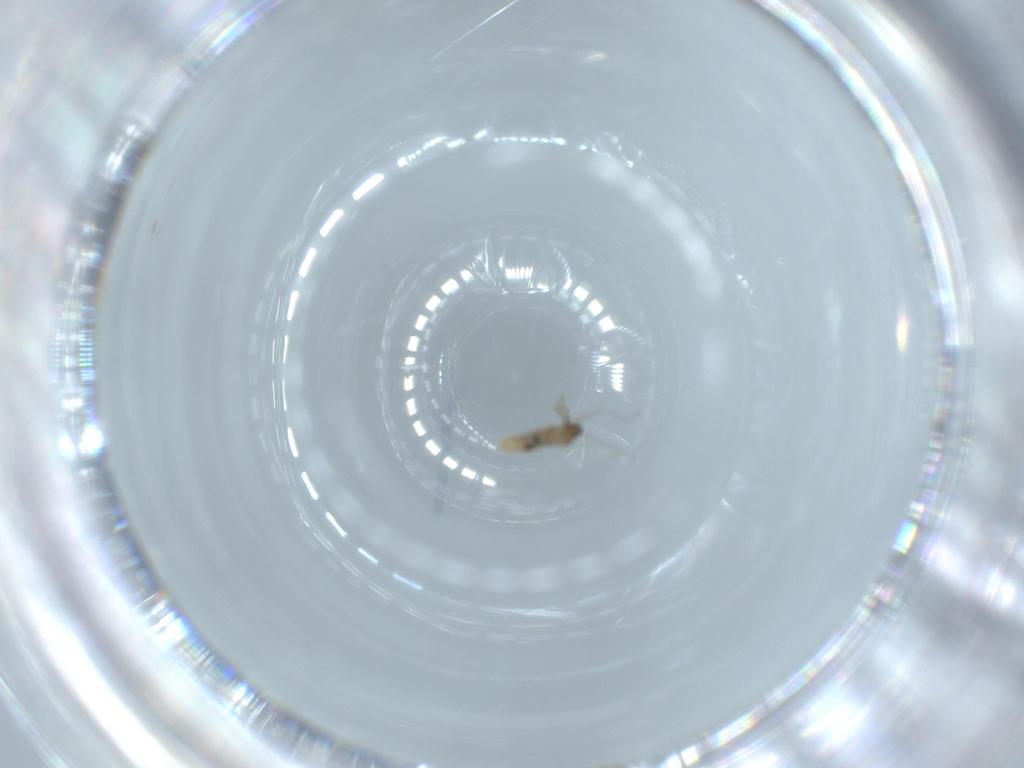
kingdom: Animalia
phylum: Arthropoda
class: Insecta
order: Diptera
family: Cecidomyiidae
